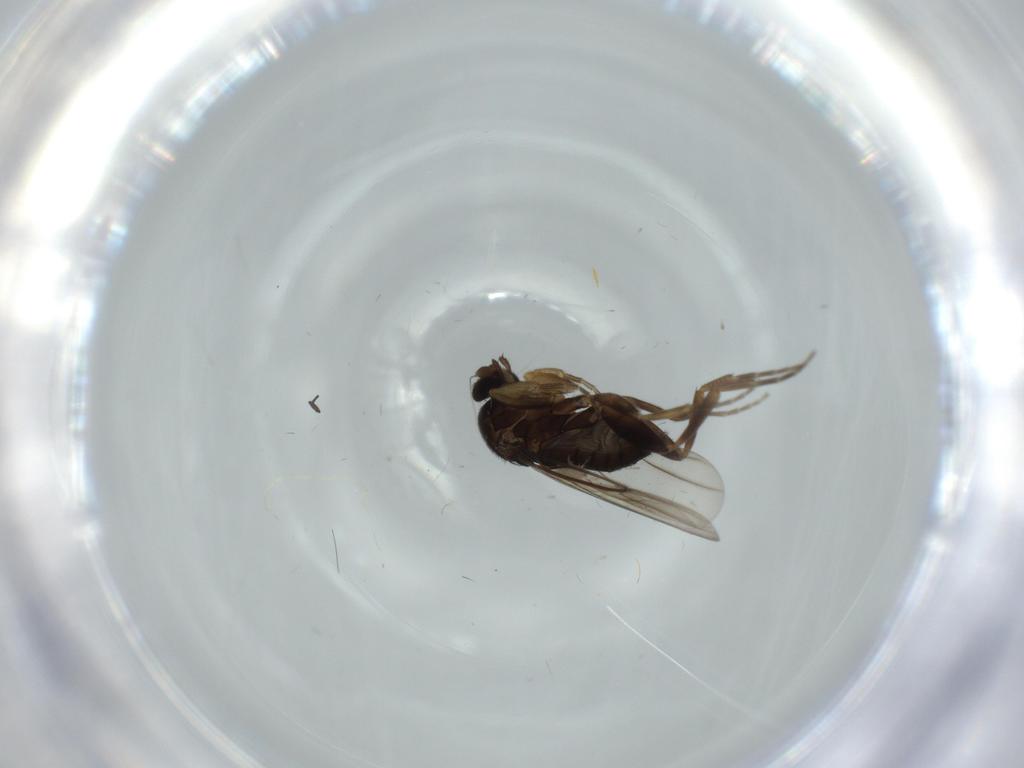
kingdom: Animalia
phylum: Arthropoda
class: Insecta
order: Diptera
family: Phoridae
